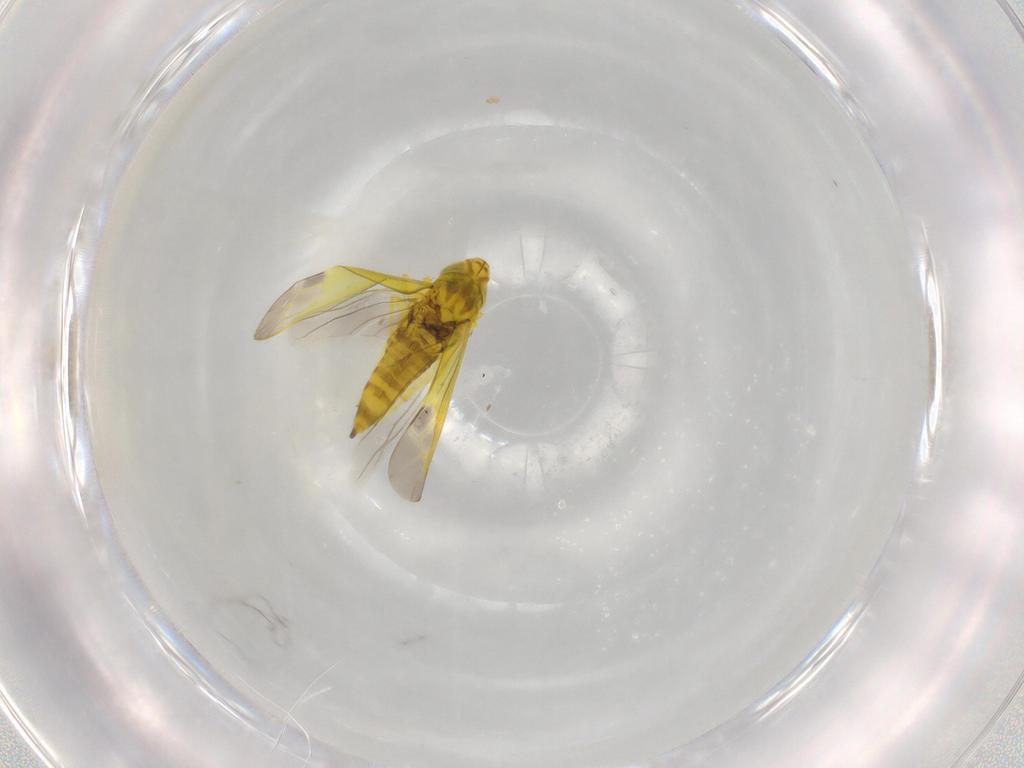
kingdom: Animalia
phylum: Arthropoda
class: Insecta
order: Hemiptera
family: Cicadellidae
